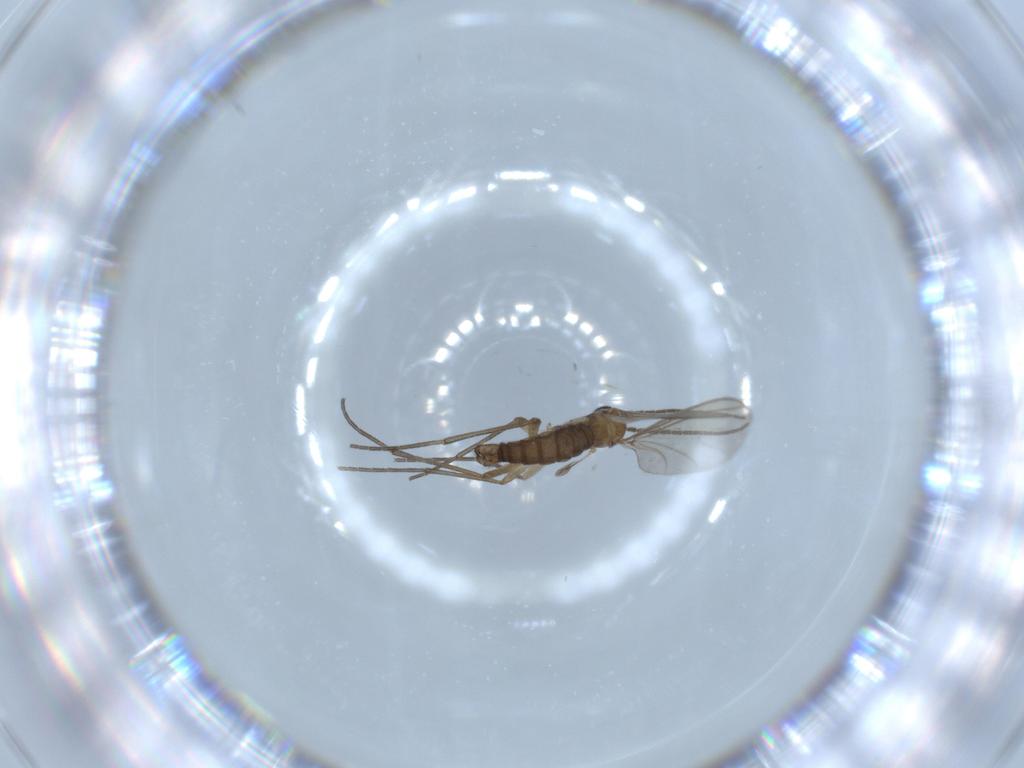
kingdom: Animalia
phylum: Arthropoda
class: Insecta
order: Diptera
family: Sciaridae
